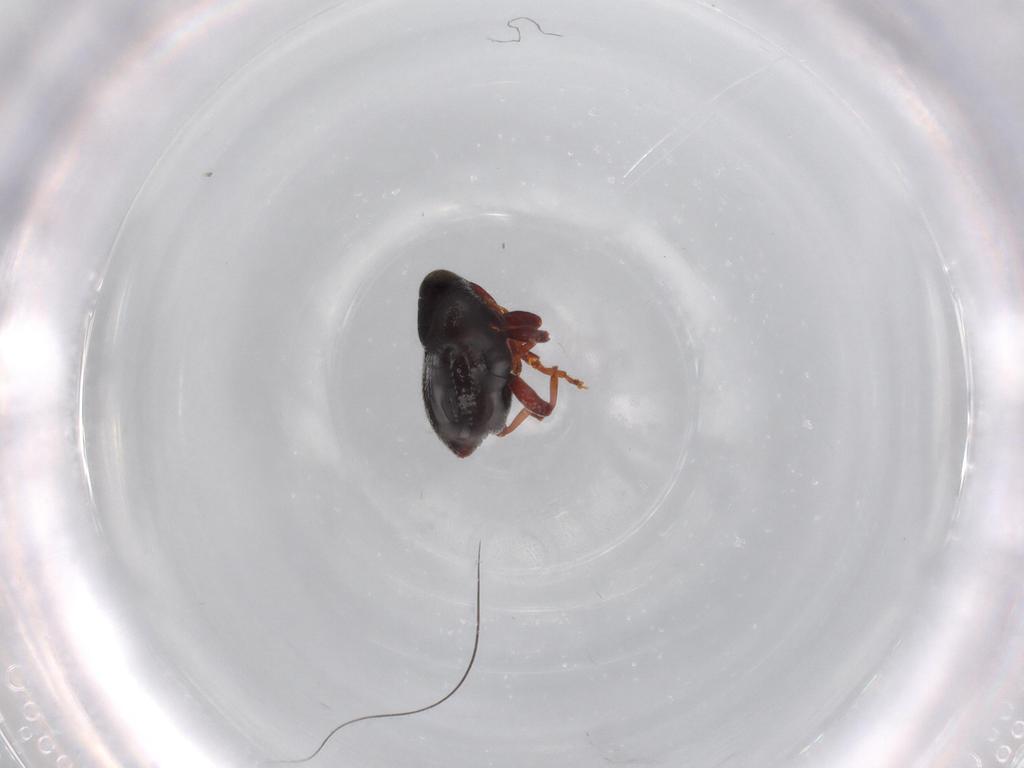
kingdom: Animalia
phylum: Arthropoda
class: Insecta
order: Coleoptera
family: Curculionidae
